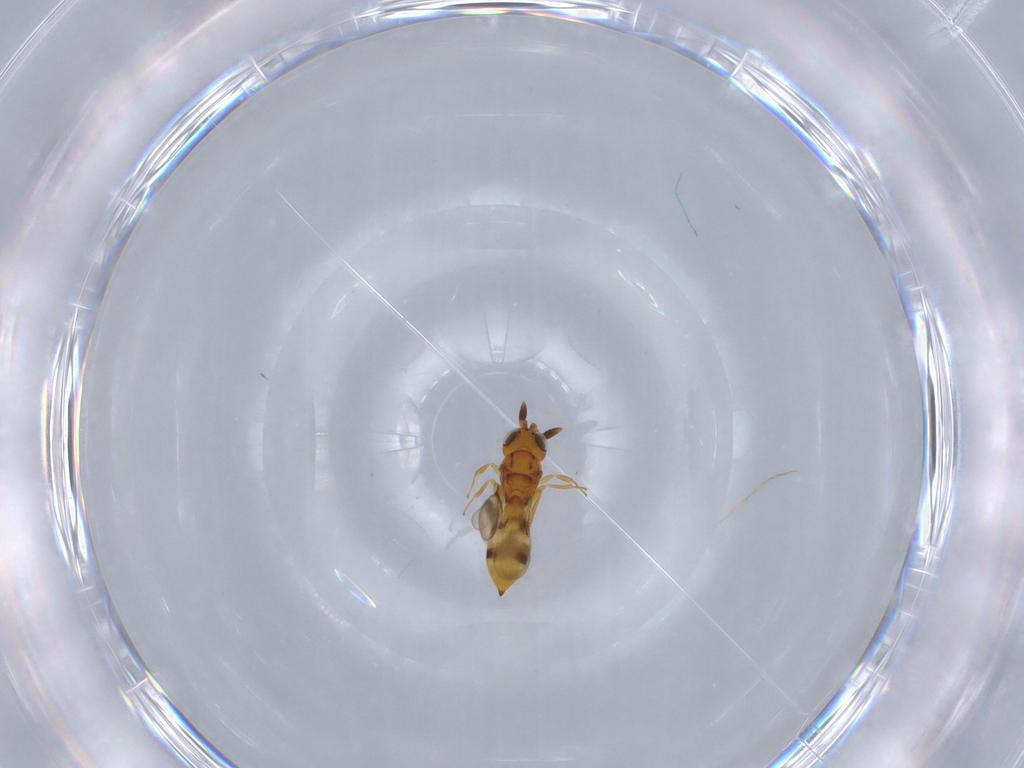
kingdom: Animalia
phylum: Arthropoda
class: Insecta
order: Hymenoptera
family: Scelionidae
